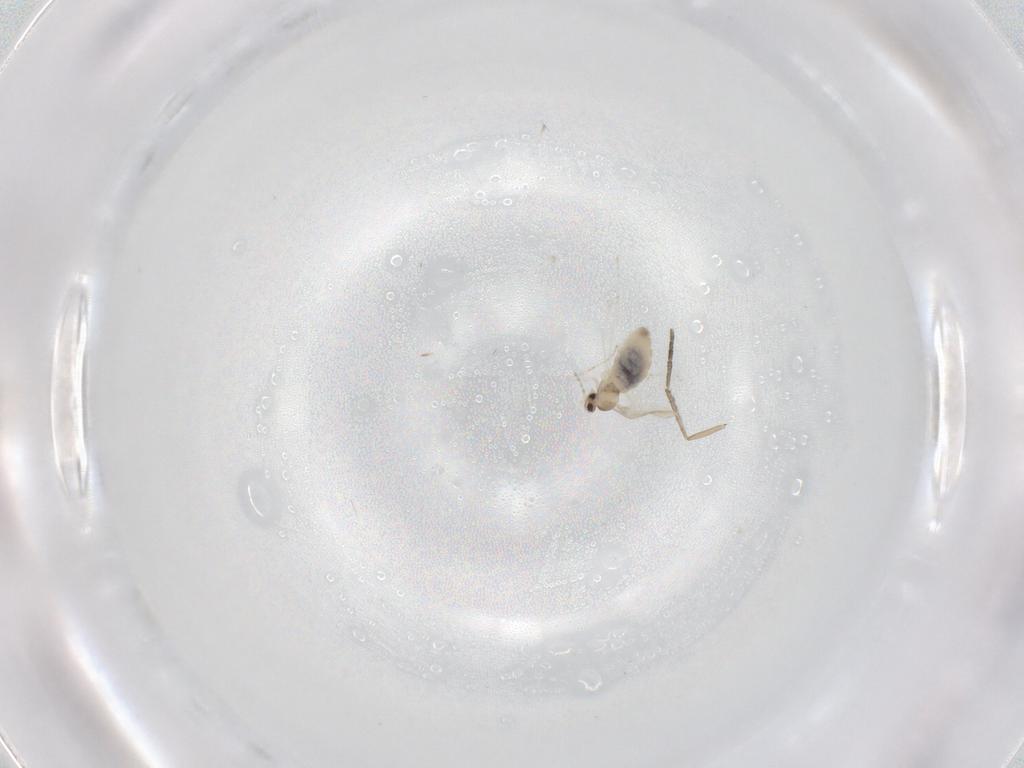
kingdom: Animalia
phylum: Arthropoda
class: Insecta
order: Diptera
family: Cecidomyiidae
